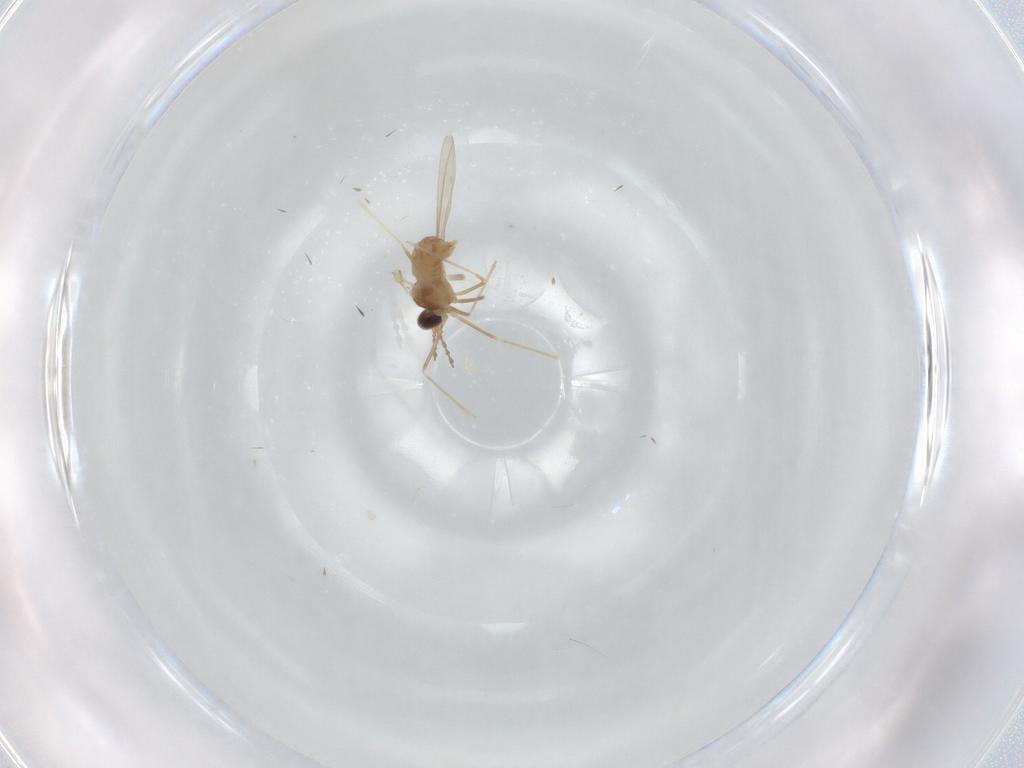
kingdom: Animalia
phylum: Arthropoda
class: Insecta
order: Diptera
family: Cecidomyiidae
